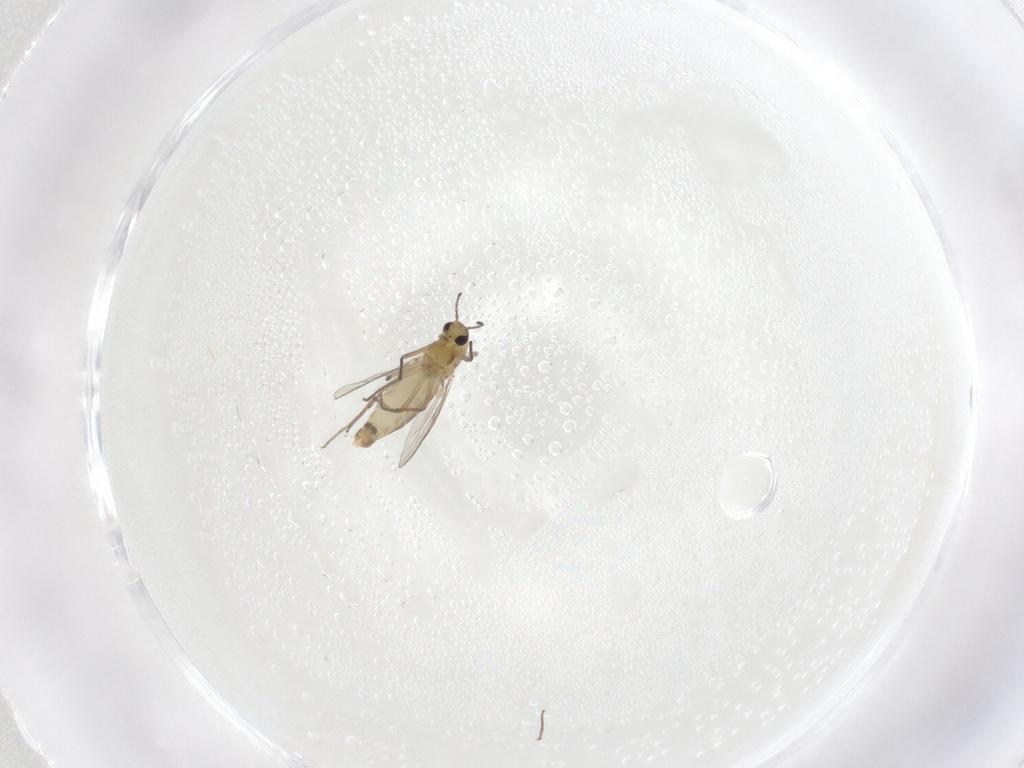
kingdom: Animalia
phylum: Arthropoda
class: Insecta
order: Diptera
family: Chironomidae
